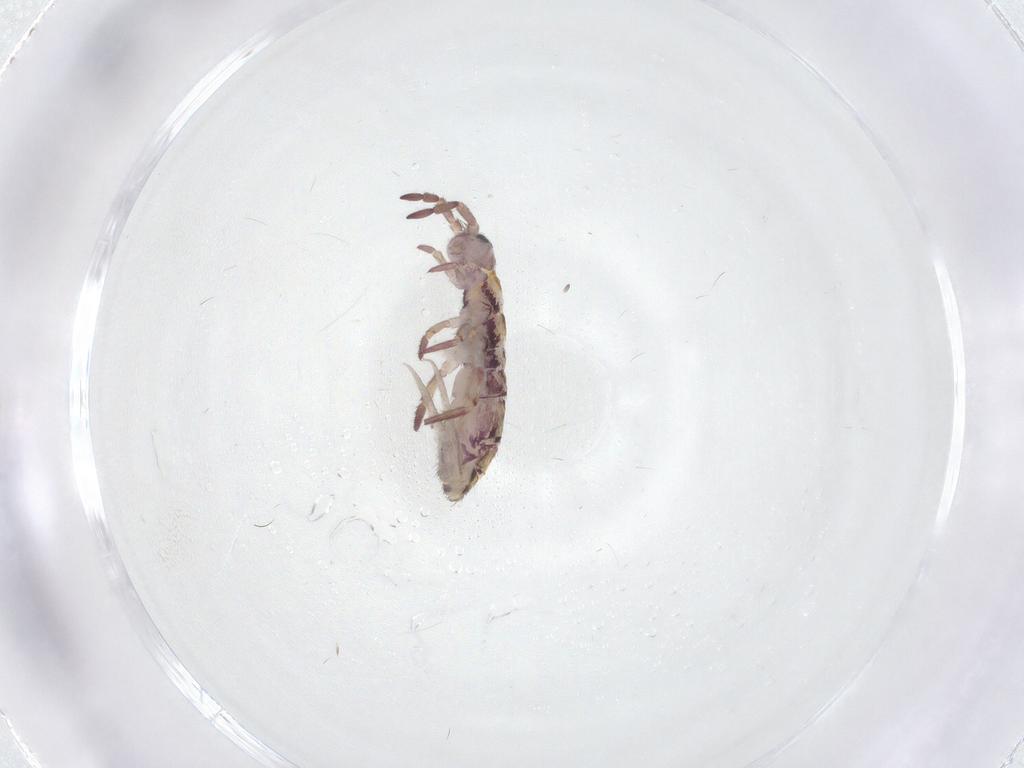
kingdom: Animalia
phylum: Arthropoda
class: Collembola
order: Entomobryomorpha
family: Isotomidae
